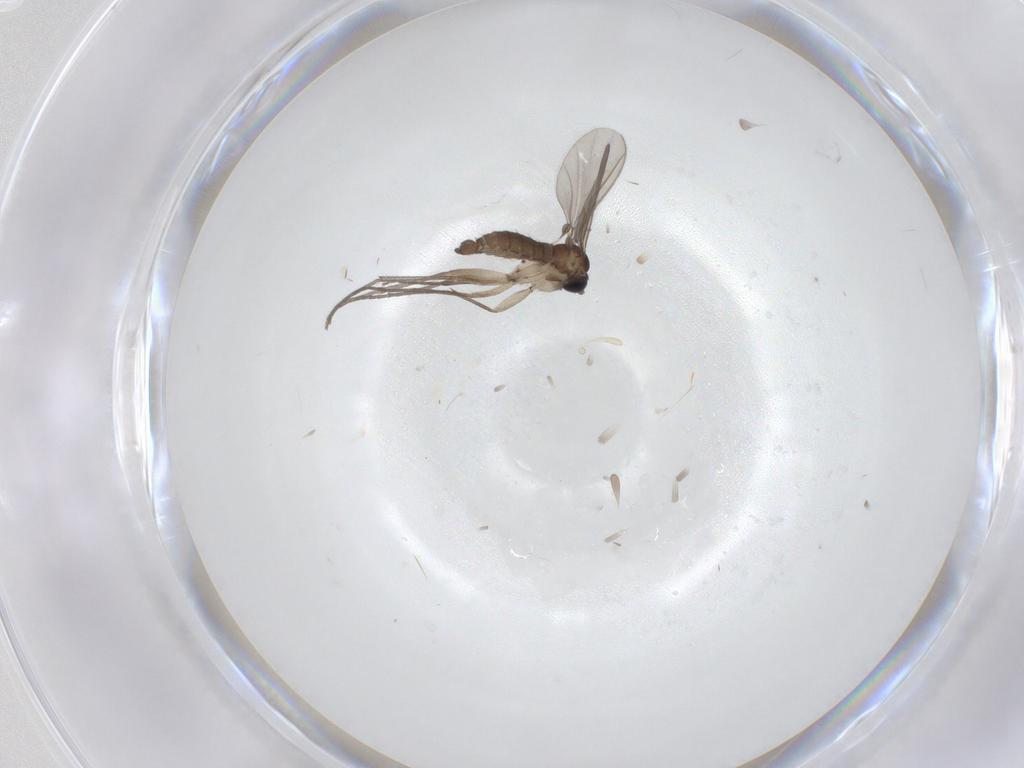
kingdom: Animalia
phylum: Arthropoda
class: Insecta
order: Diptera
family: Sciaridae
